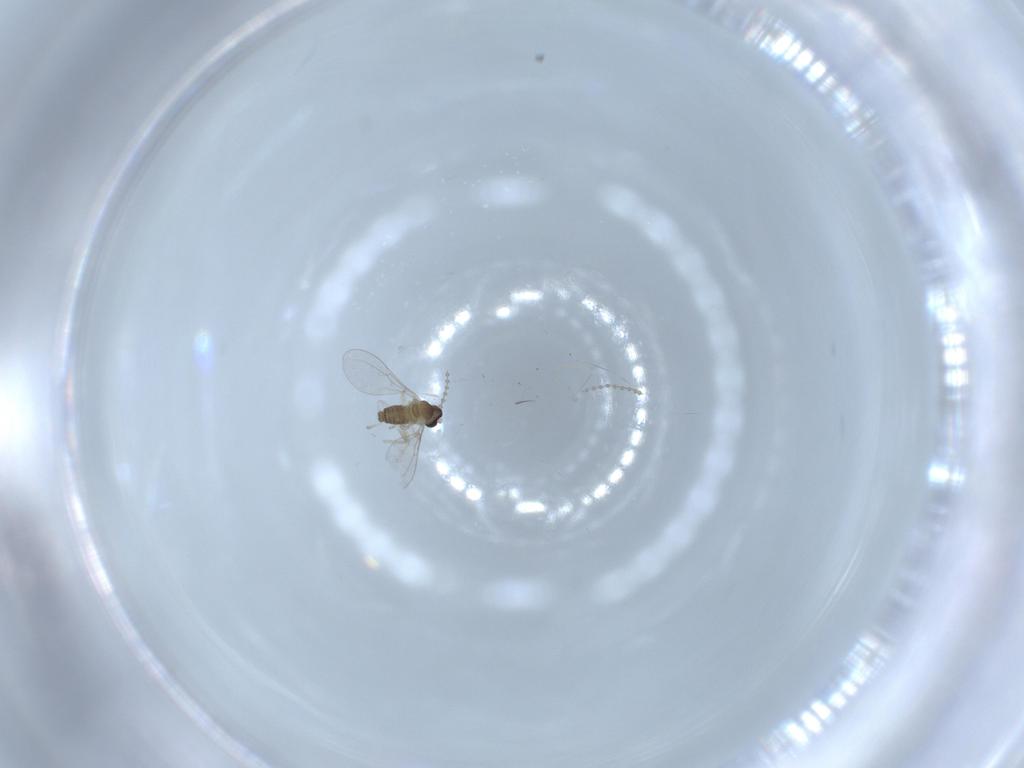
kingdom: Animalia
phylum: Arthropoda
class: Insecta
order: Diptera
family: Cecidomyiidae
